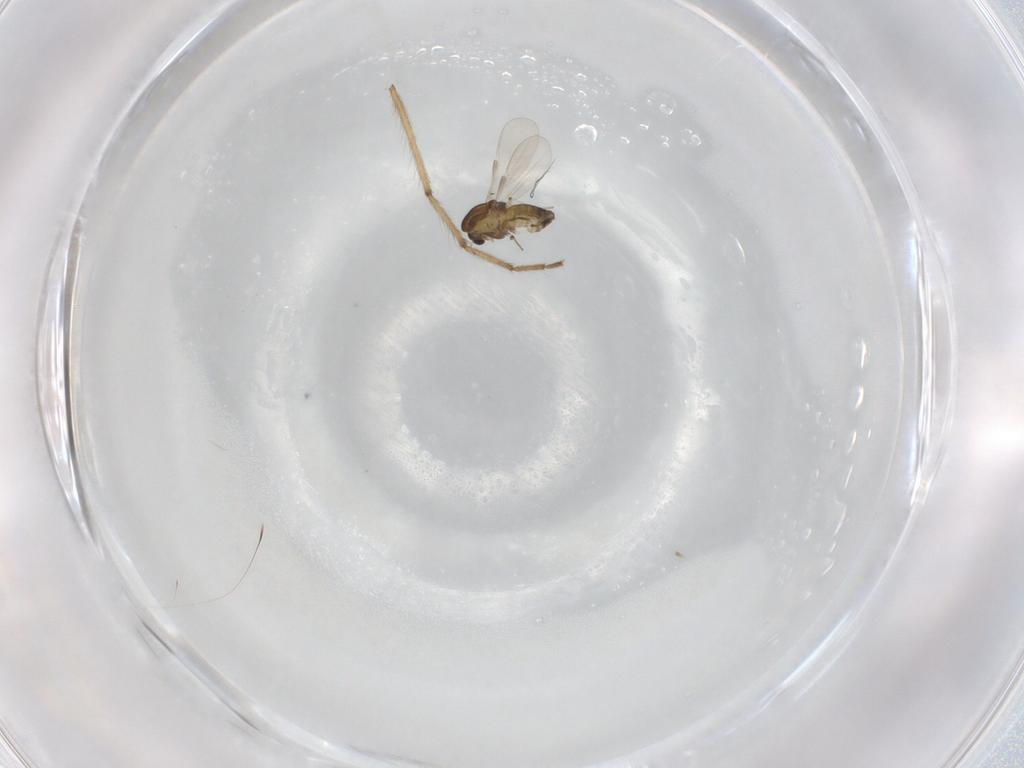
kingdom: Animalia
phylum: Arthropoda
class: Insecta
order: Diptera
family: Chironomidae
